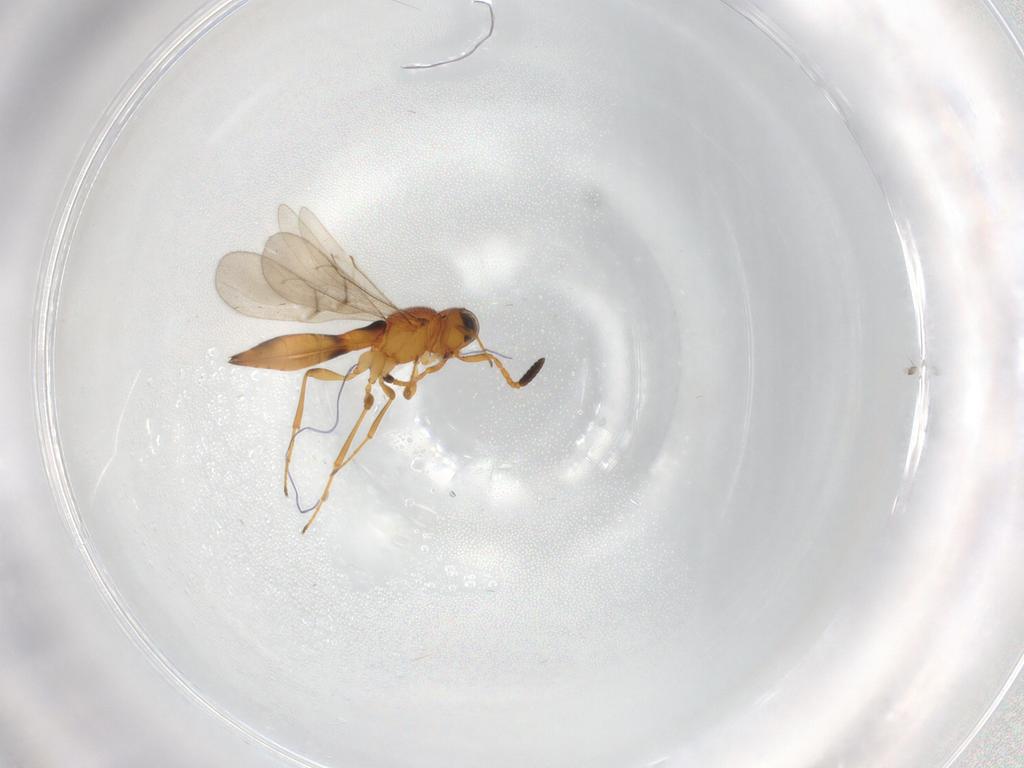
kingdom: Animalia
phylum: Arthropoda
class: Insecta
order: Hymenoptera
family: Scelionidae
